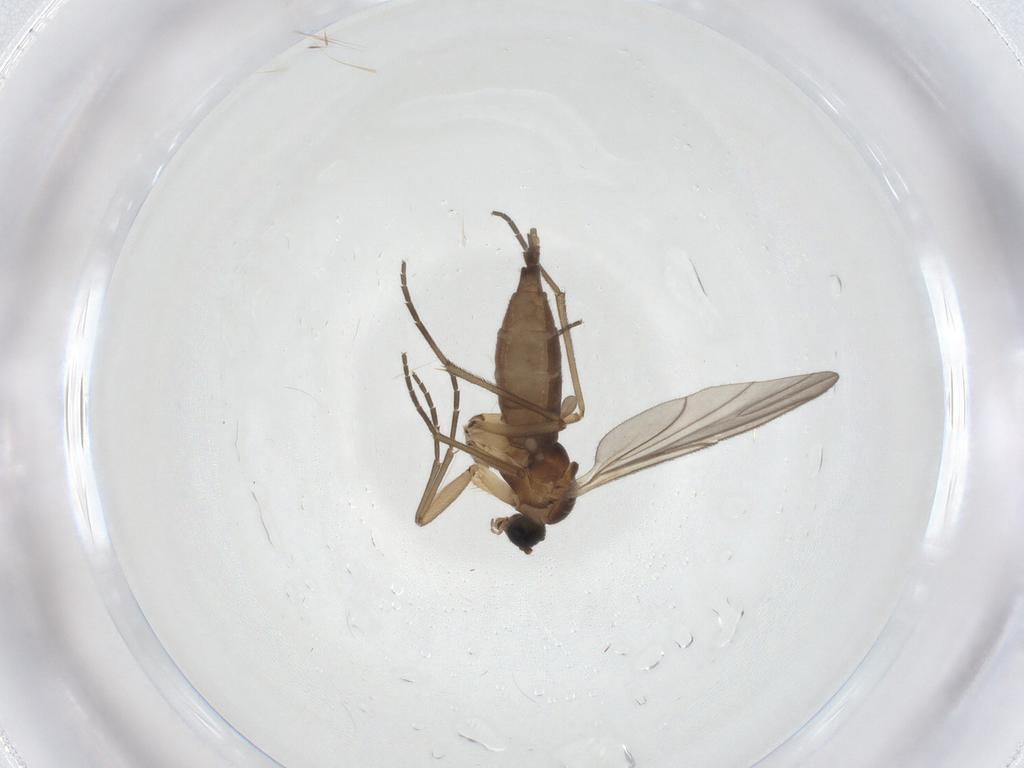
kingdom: Animalia
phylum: Arthropoda
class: Insecta
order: Diptera
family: Sciaridae
